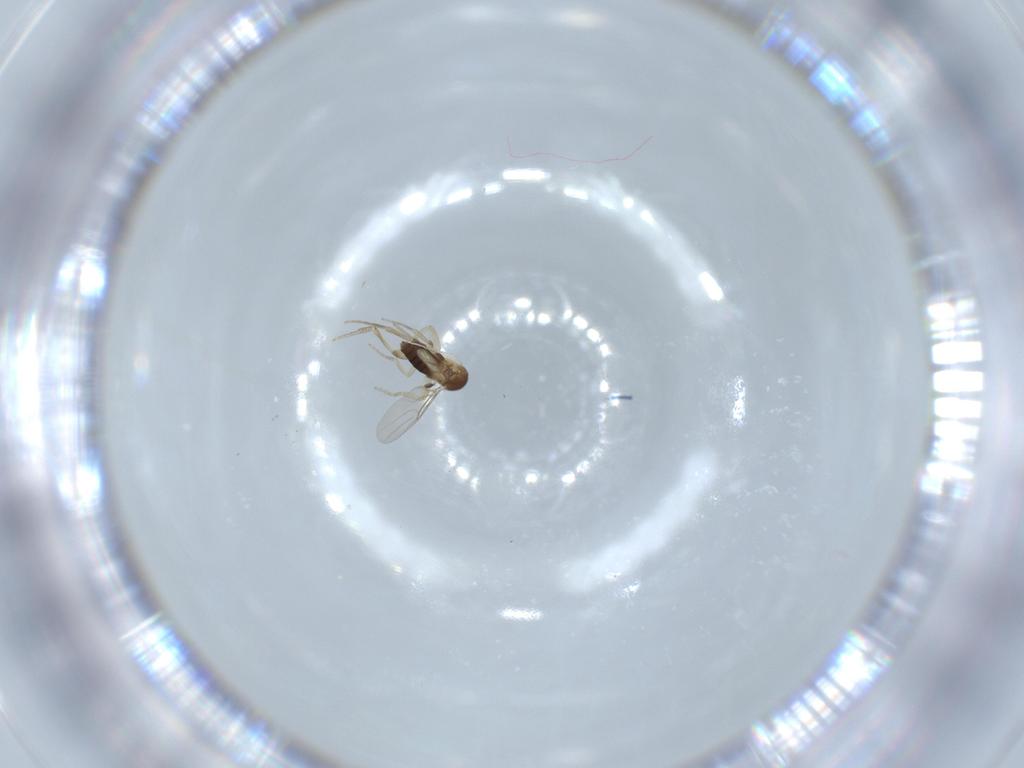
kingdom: Animalia
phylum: Arthropoda
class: Insecta
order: Diptera
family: Phoridae
